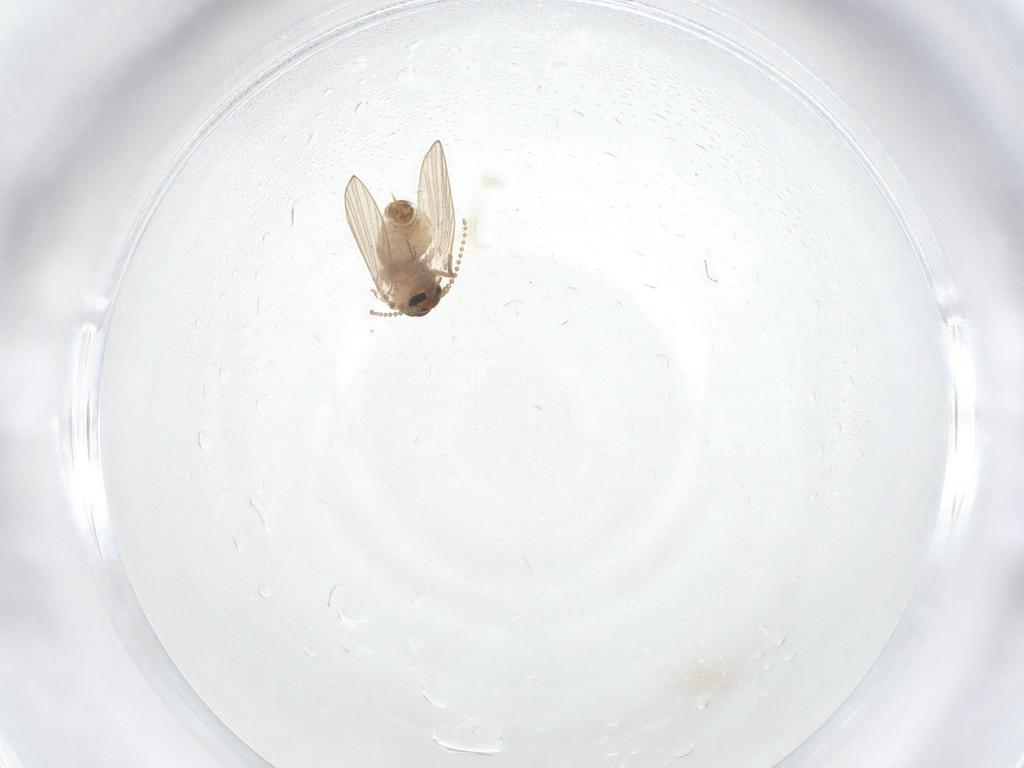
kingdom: Animalia
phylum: Arthropoda
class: Insecta
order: Diptera
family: Psychodidae
